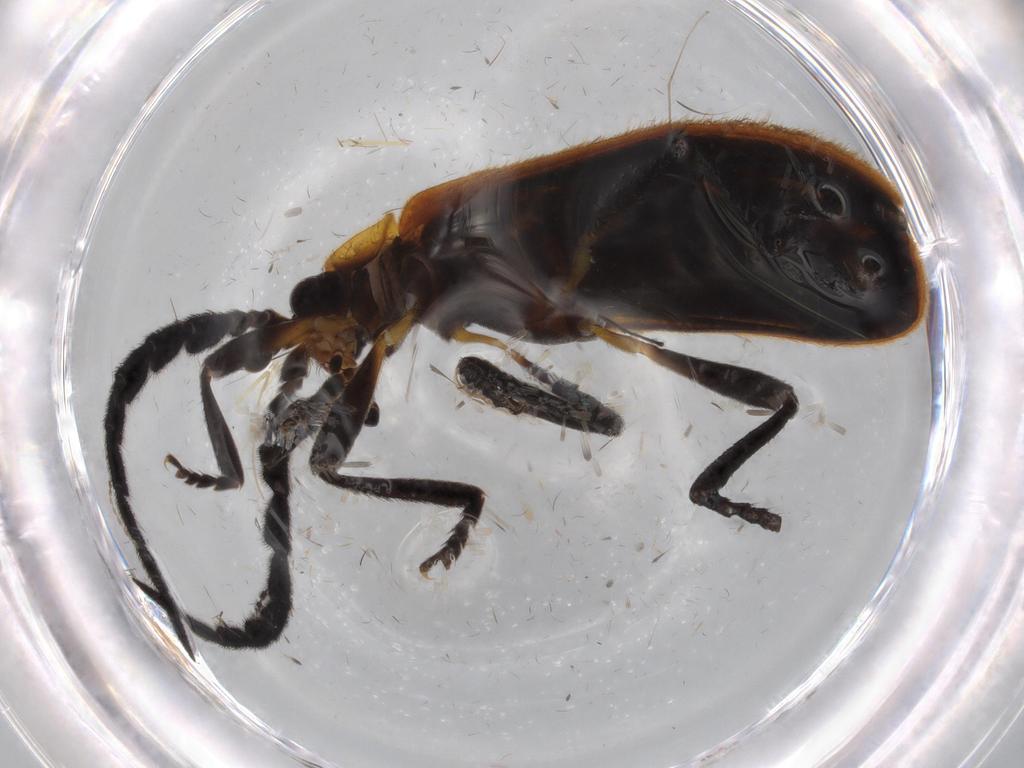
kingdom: Animalia
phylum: Arthropoda
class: Insecta
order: Coleoptera
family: Lycidae
